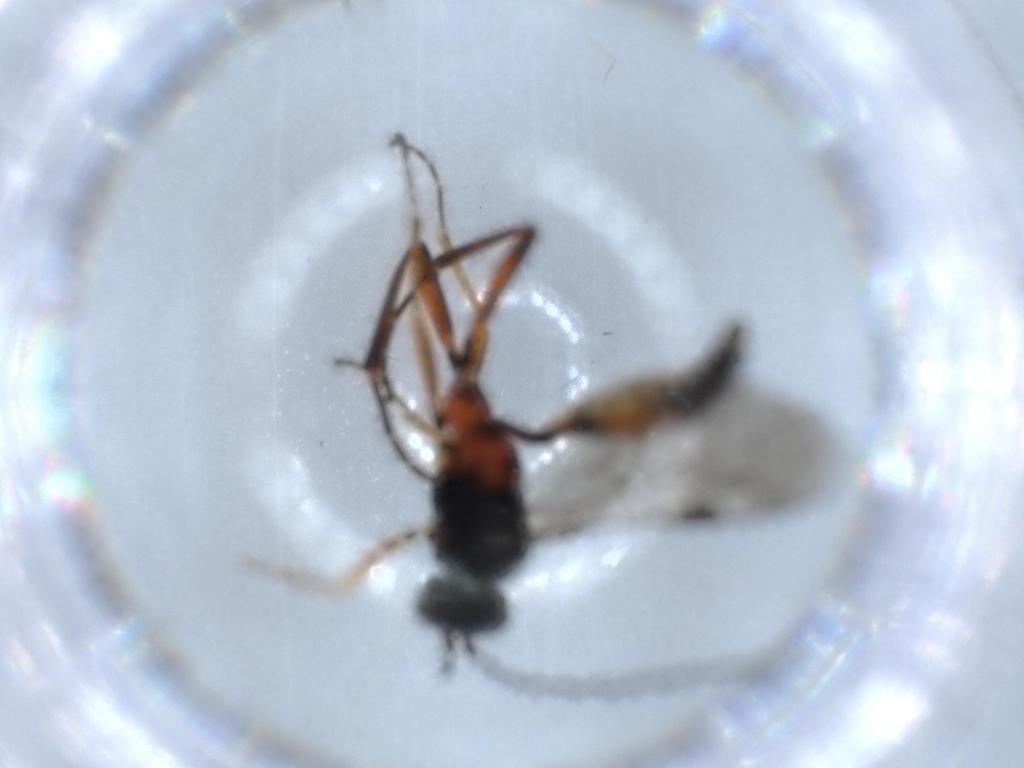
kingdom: Animalia
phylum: Arthropoda
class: Insecta
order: Hymenoptera
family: Ichneumonidae
